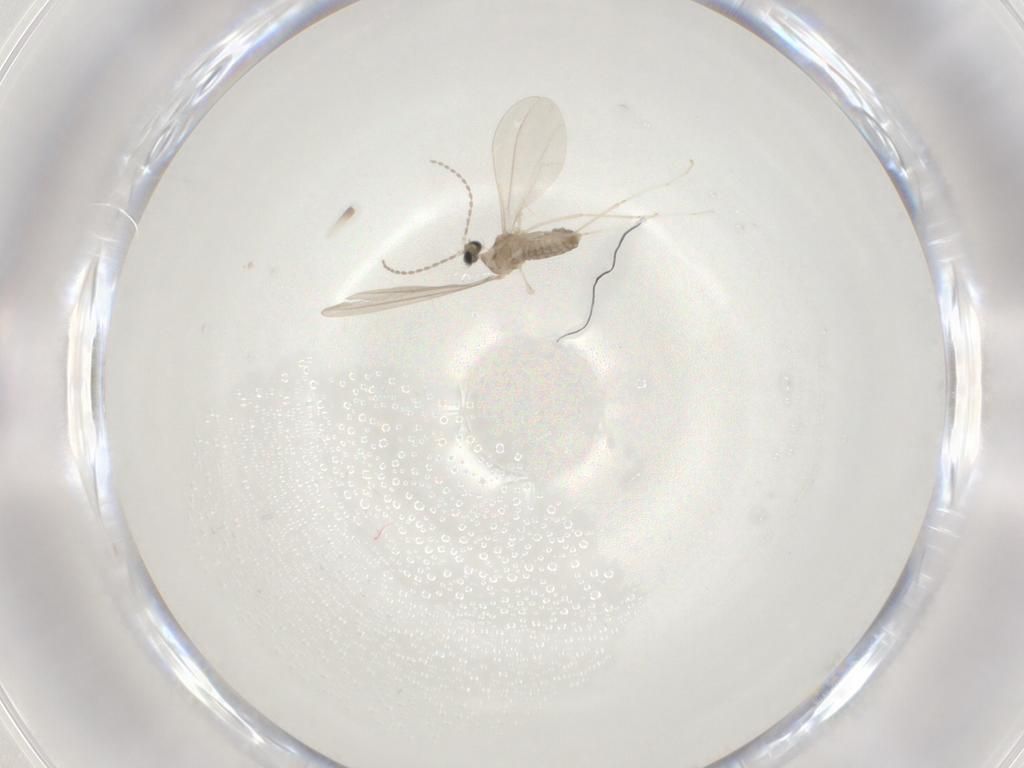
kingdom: Animalia
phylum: Arthropoda
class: Insecta
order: Diptera
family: Cecidomyiidae
